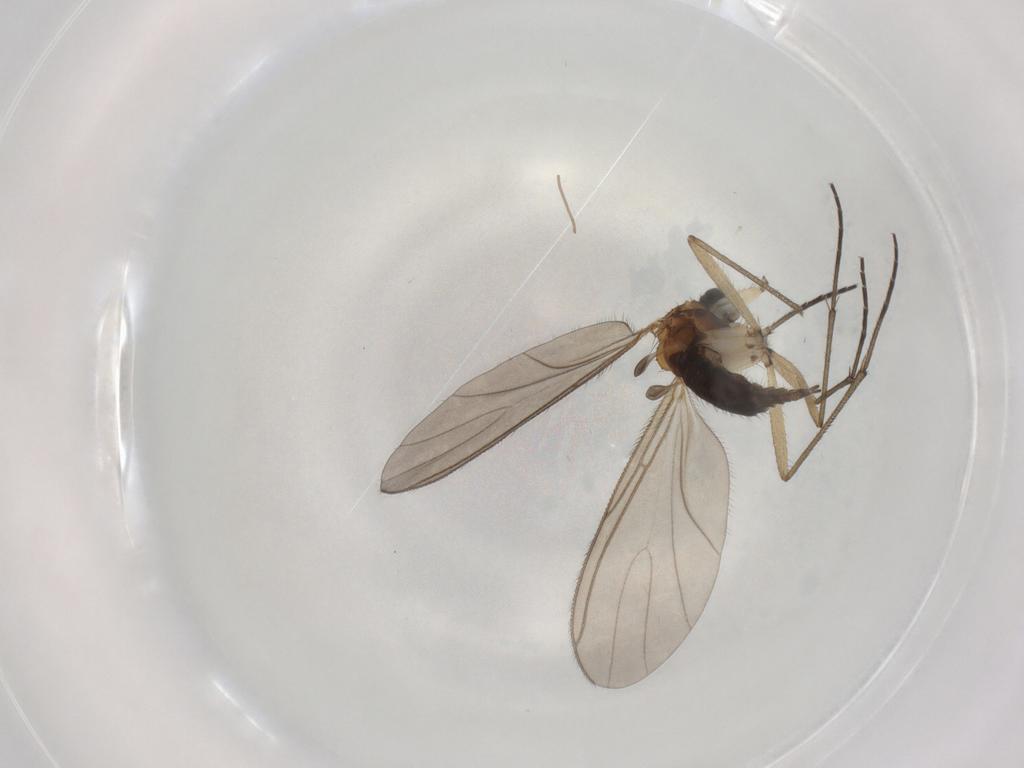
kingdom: Animalia
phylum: Arthropoda
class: Insecta
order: Diptera
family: Sciaridae
